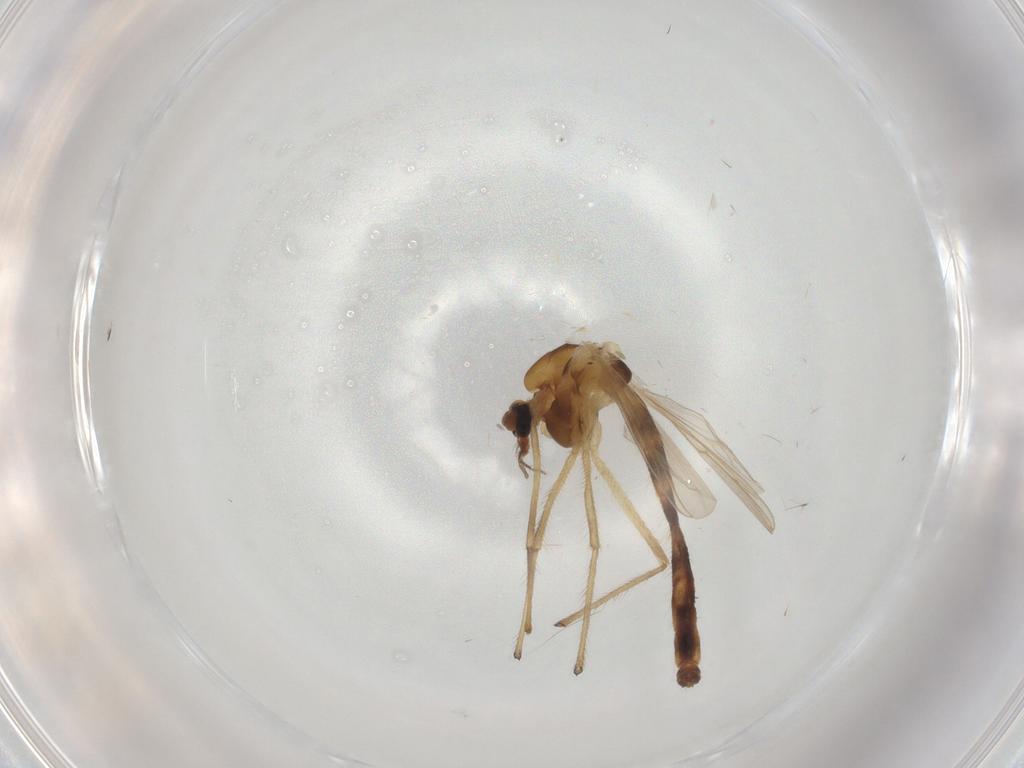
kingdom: Animalia
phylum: Arthropoda
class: Insecta
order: Diptera
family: Chironomidae
